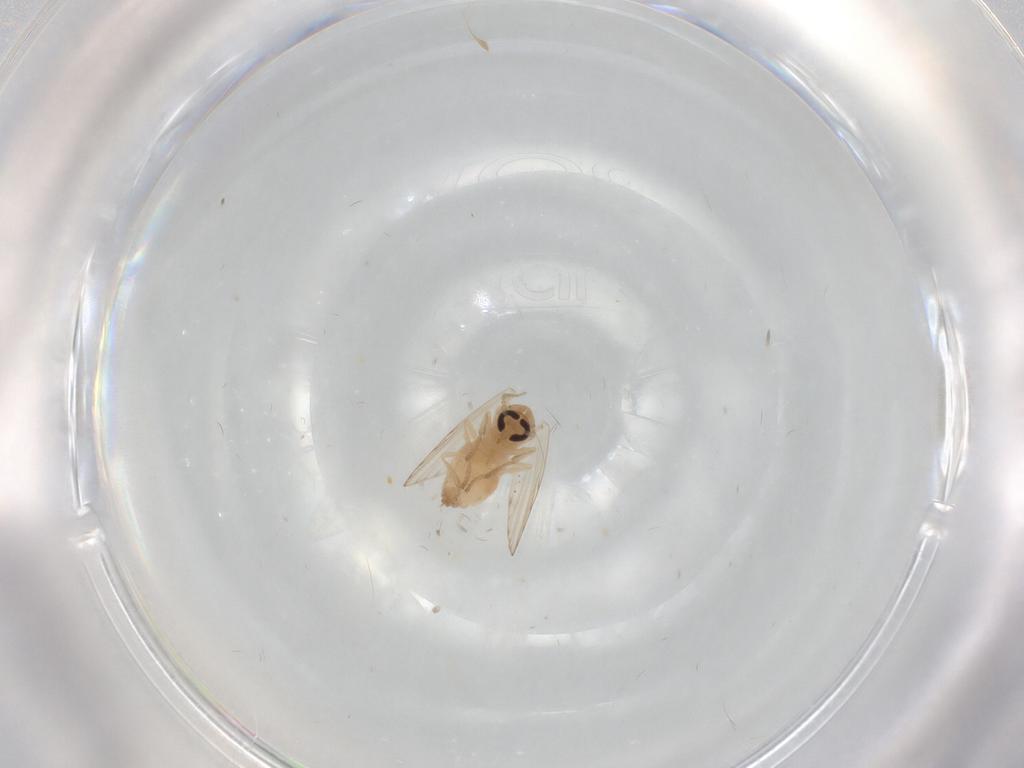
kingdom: Animalia
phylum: Arthropoda
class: Insecta
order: Diptera
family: Psychodidae
